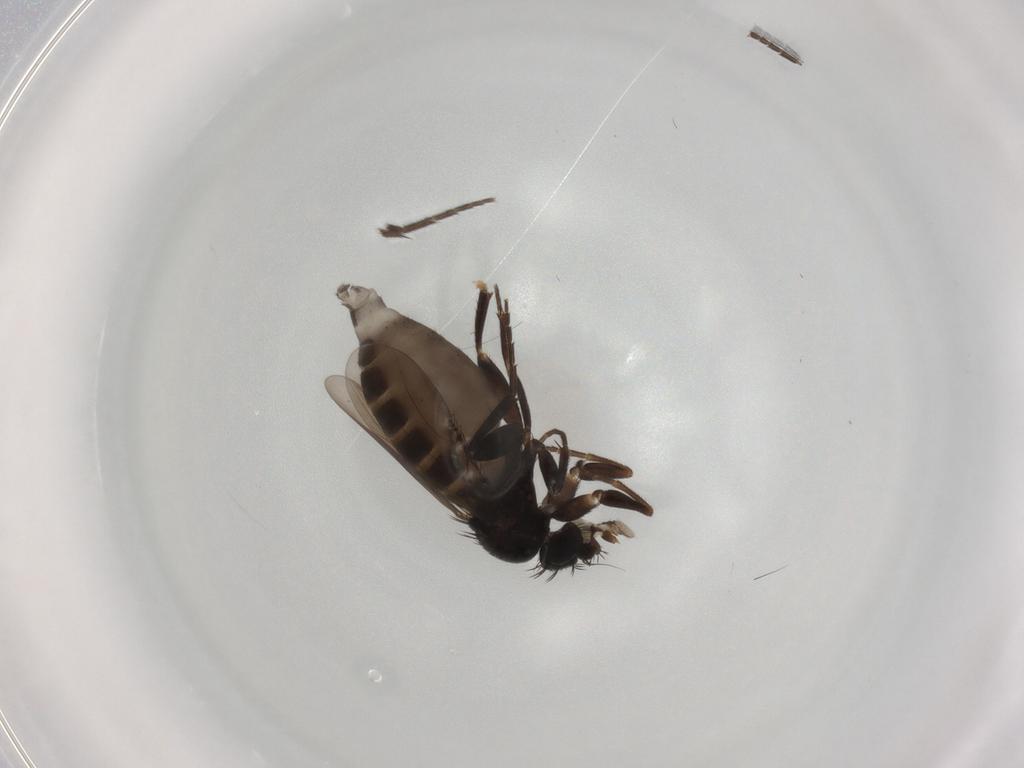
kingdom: Animalia
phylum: Arthropoda
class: Insecta
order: Diptera
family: Phoridae
